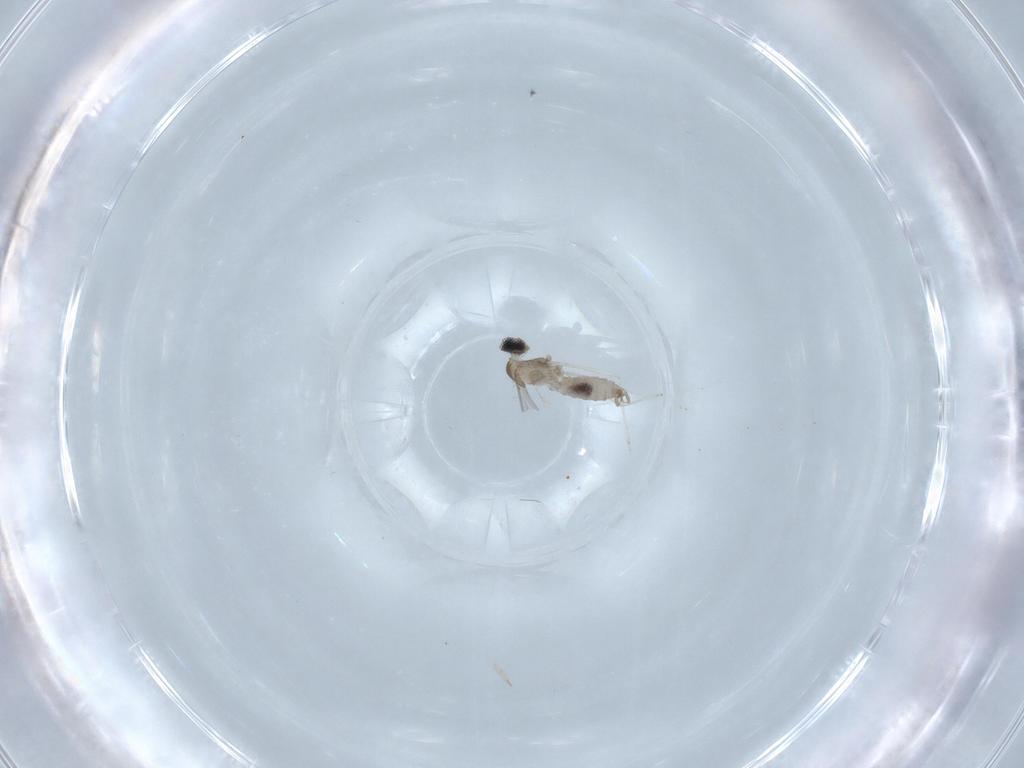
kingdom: Animalia
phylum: Arthropoda
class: Insecta
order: Diptera
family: Cecidomyiidae
